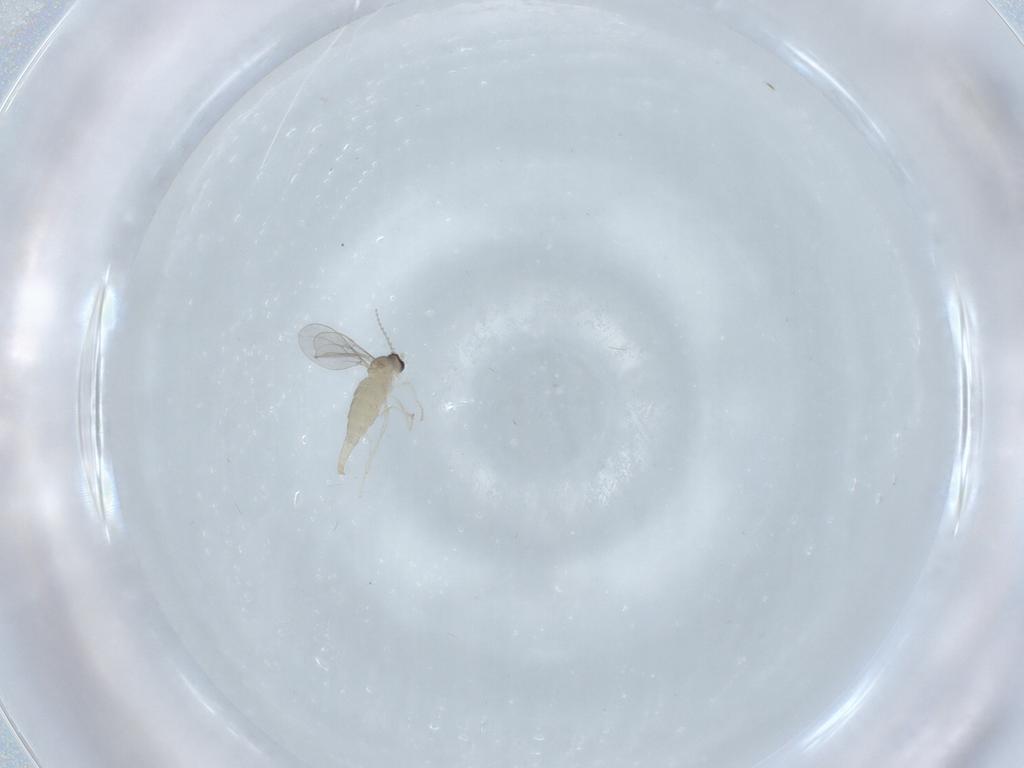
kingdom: Animalia
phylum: Arthropoda
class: Insecta
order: Diptera
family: Cecidomyiidae
